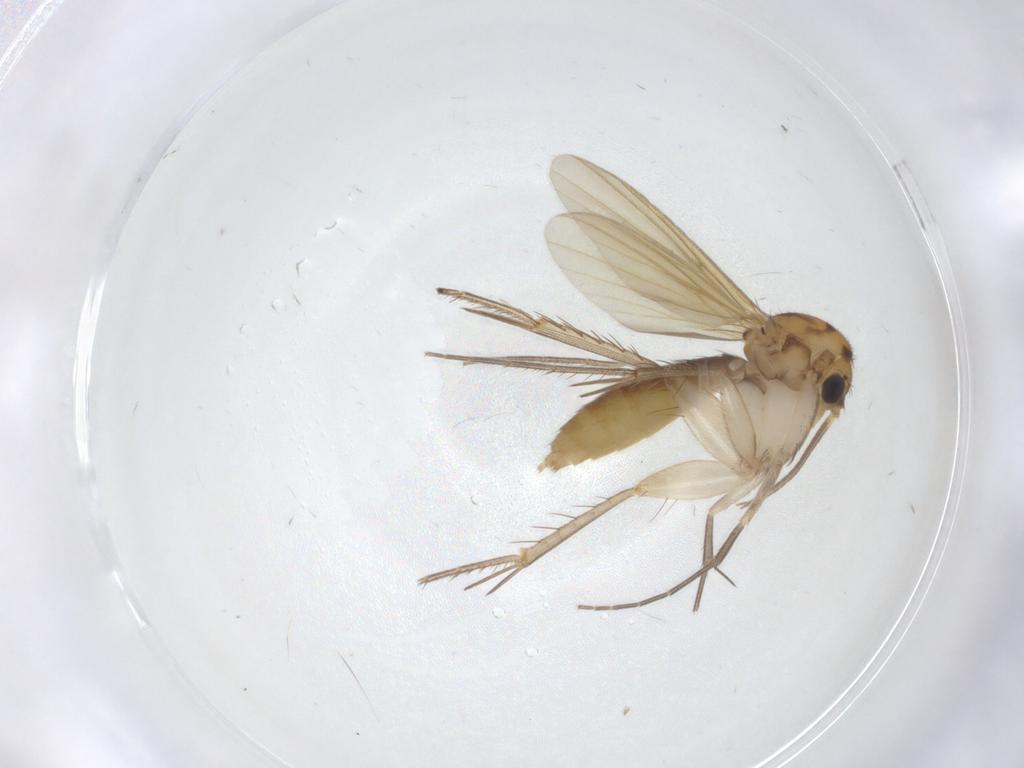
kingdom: Animalia
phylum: Arthropoda
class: Insecta
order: Diptera
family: Mycetophilidae
